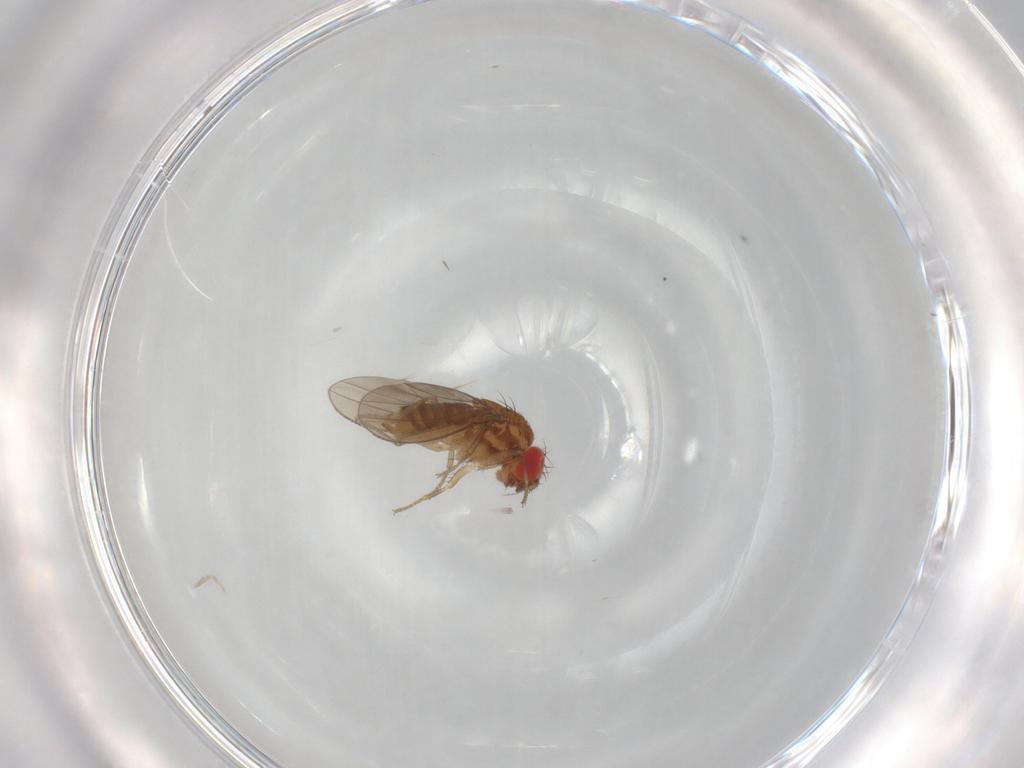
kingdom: Animalia
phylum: Arthropoda
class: Insecta
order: Diptera
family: Drosophilidae
